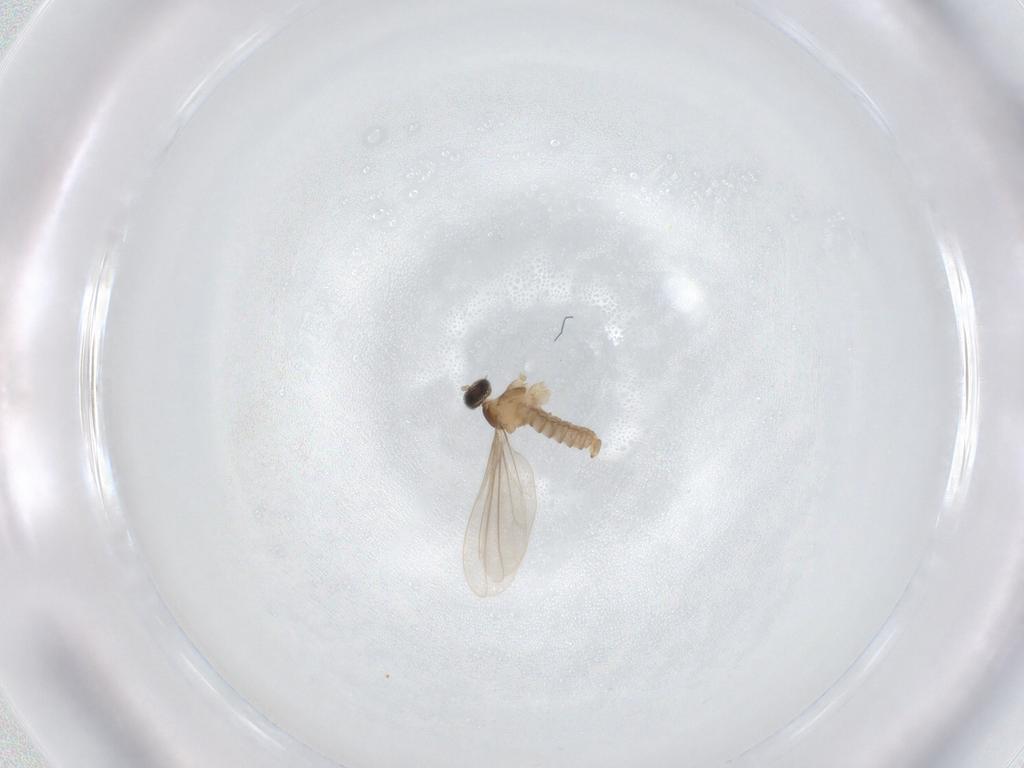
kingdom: Animalia
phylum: Arthropoda
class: Insecta
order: Diptera
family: Cecidomyiidae
